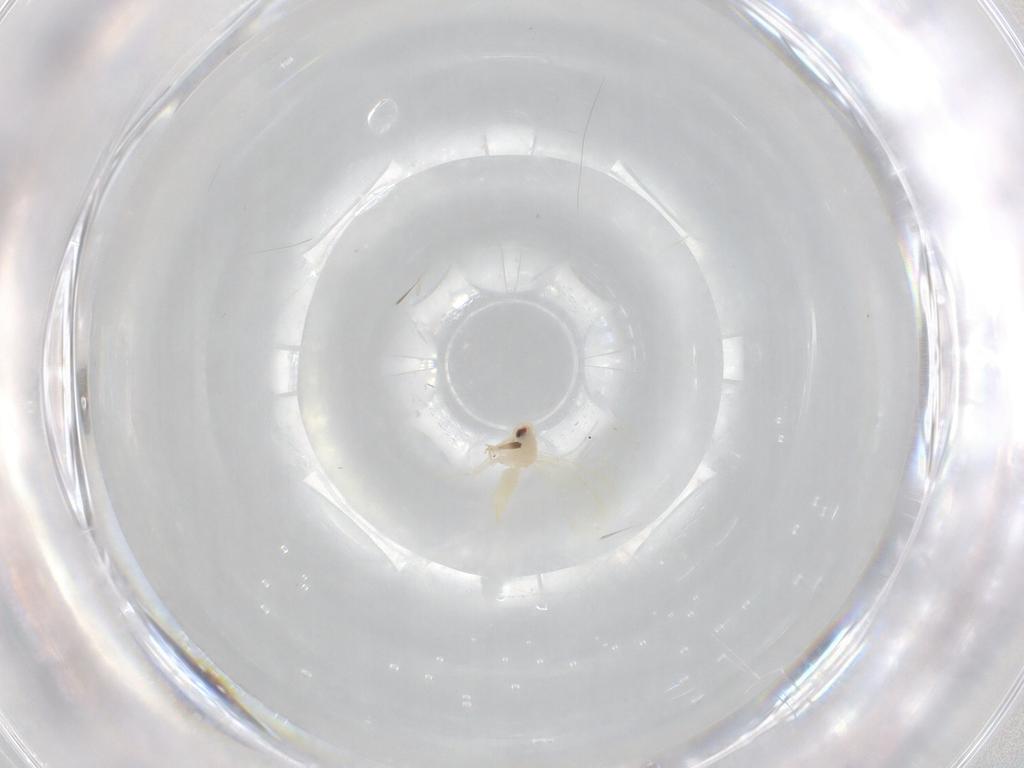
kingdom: Animalia
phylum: Arthropoda
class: Insecta
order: Hemiptera
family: Aleyrodidae
